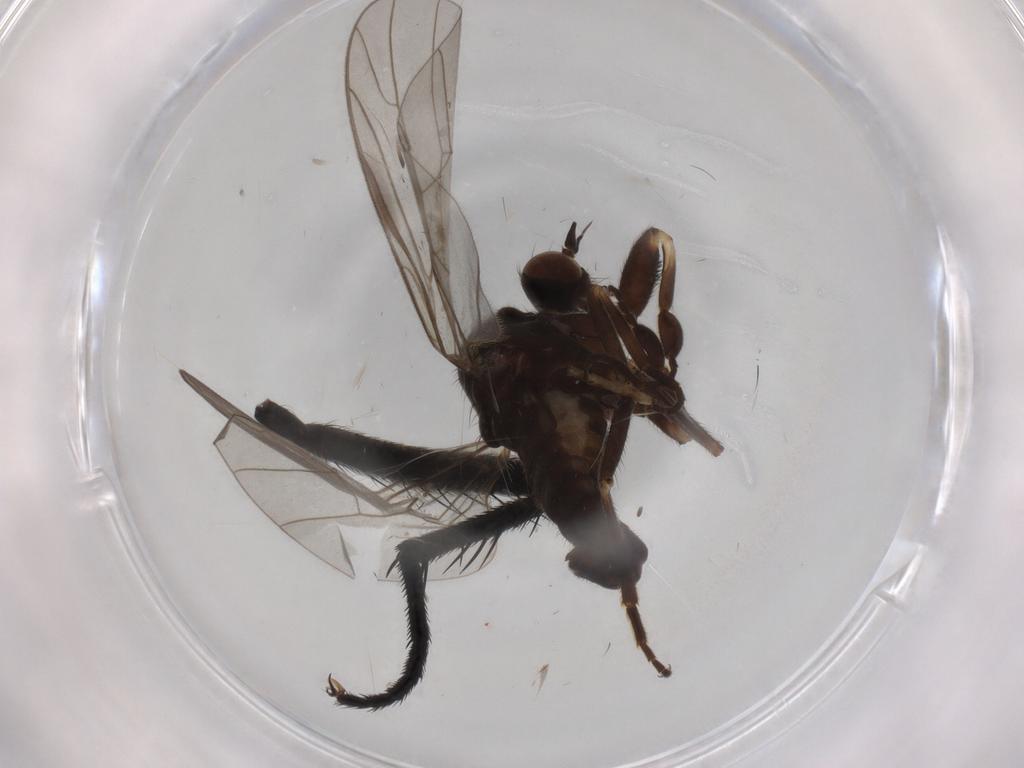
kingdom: Animalia
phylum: Arthropoda
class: Insecta
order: Diptera
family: Empididae
